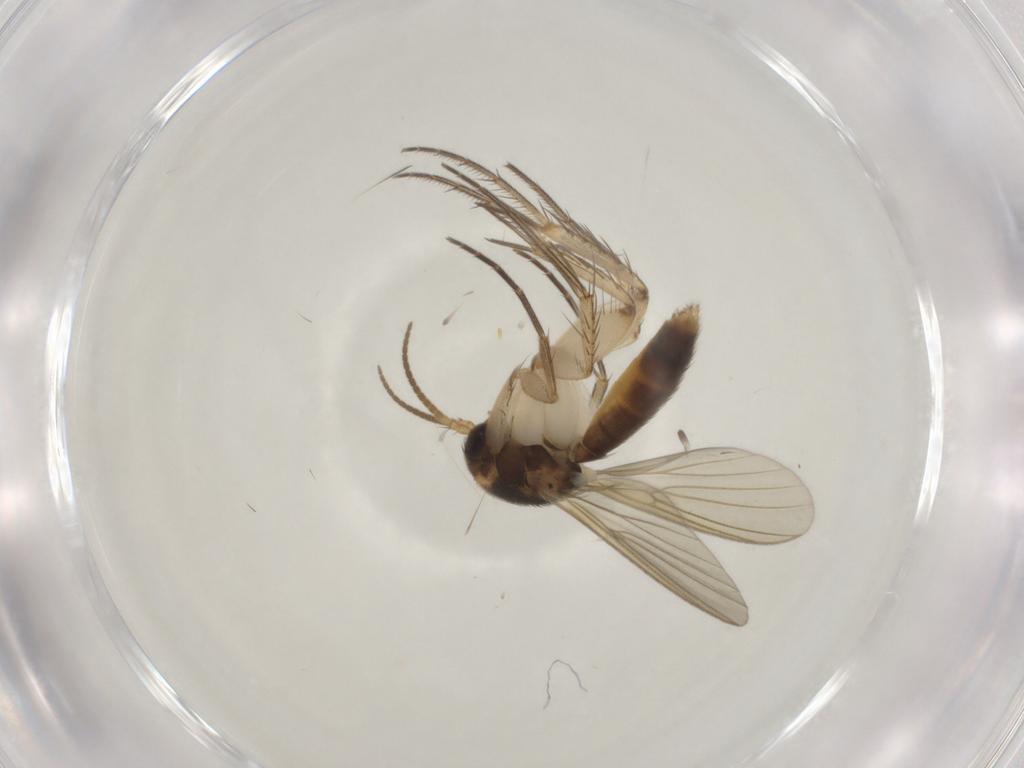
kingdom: Animalia
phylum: Arthropoda
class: Insecta
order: Diptera
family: Mycetophilidae
